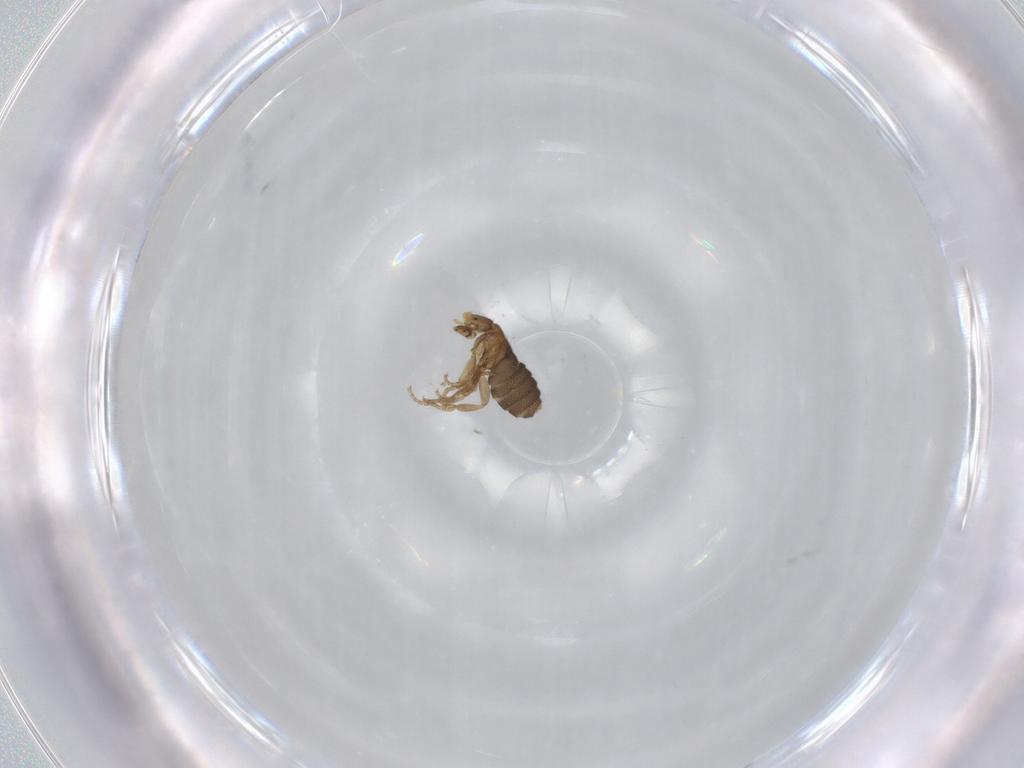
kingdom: Animalia
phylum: Arthropoda
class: Insecta
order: Diptera
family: Phoridae
